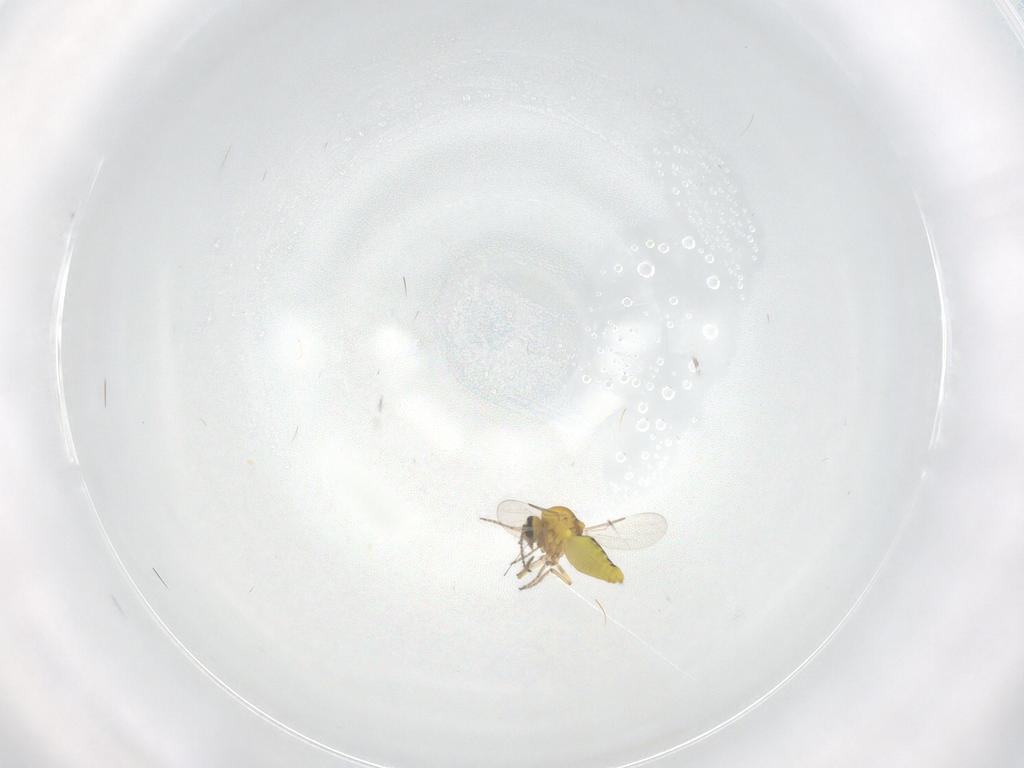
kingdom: Animalia
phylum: Arthropoda
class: Insecta
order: Diptera
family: Ceratopogonidae
